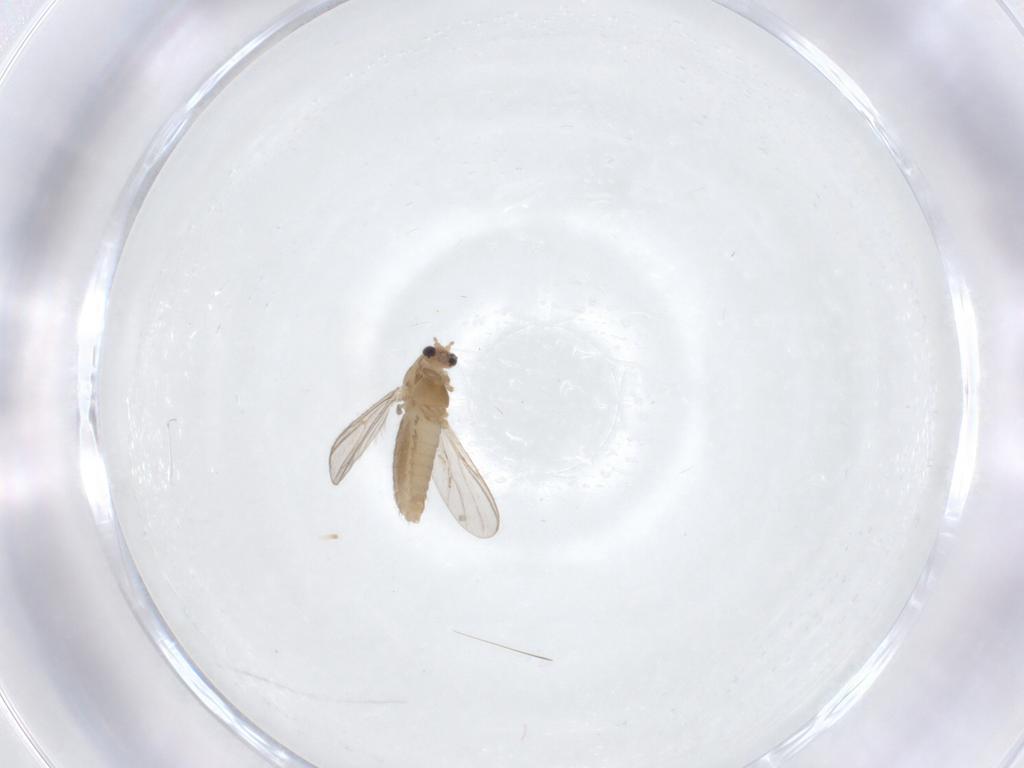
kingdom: Animalia
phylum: Arthropoda
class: Insecta
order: Diptera
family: Chironomidae
